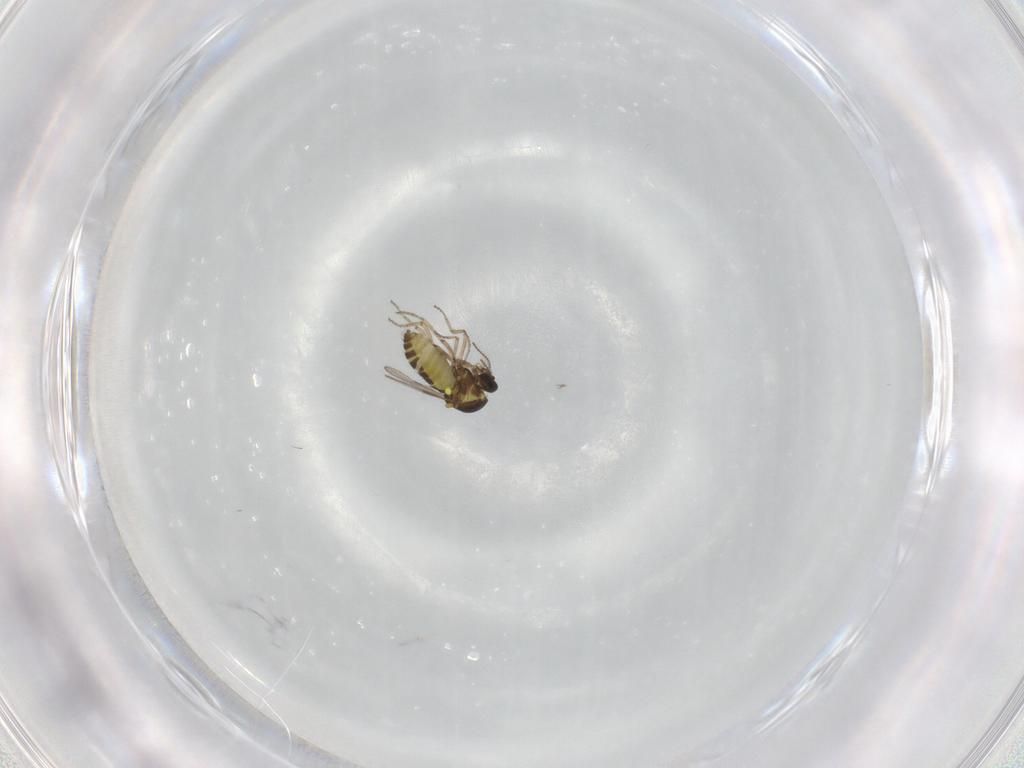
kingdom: Animalia
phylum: Arthropoda
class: Insecta
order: Diptera
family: Ceratopogonidae
